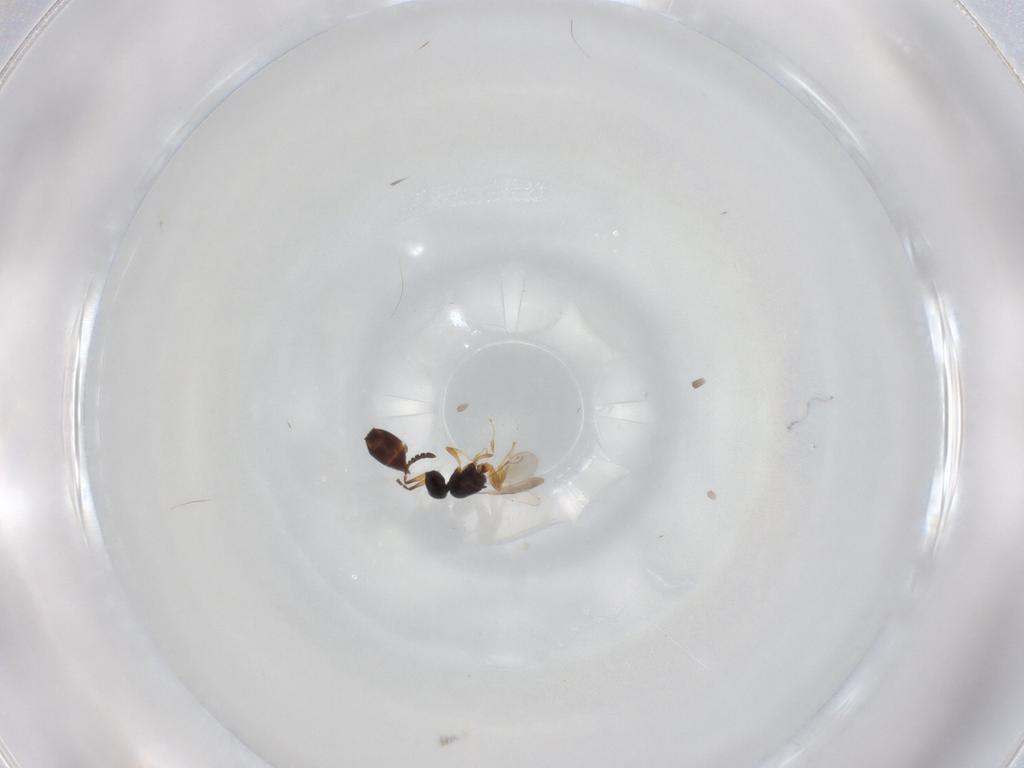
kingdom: Animalia
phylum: Arthropoda
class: Insecta
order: Hymenoptera
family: Ceraphronidae
